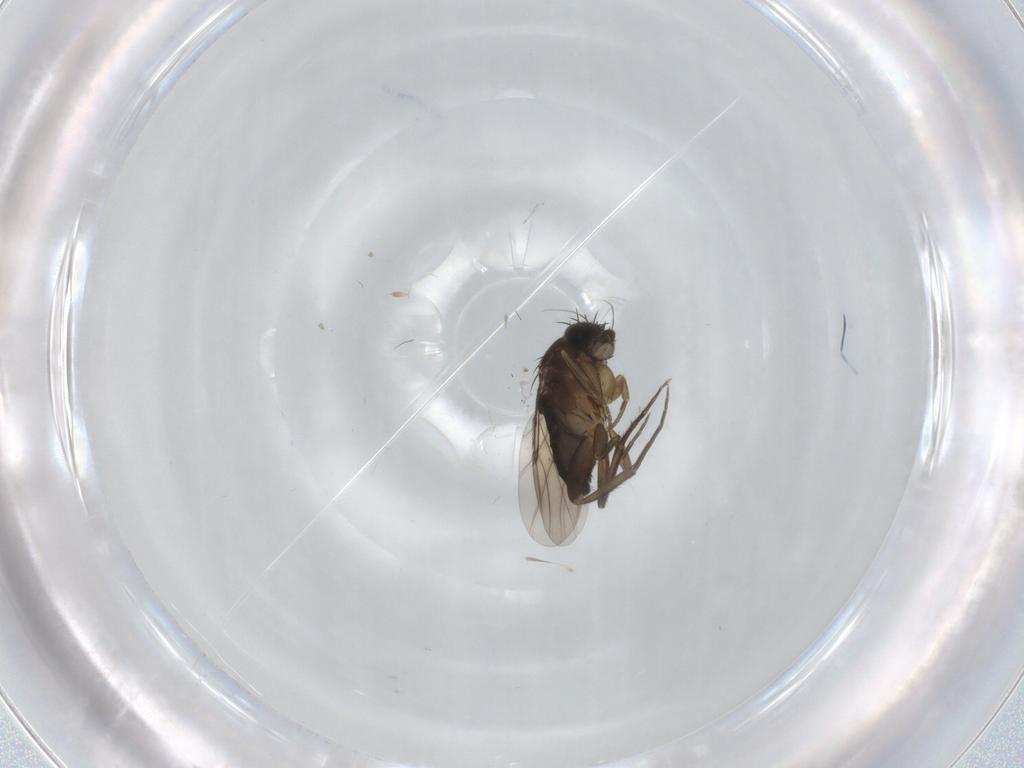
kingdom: Animalia
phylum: Arthropoda
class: Insecta
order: Diptera
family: Phoridae
